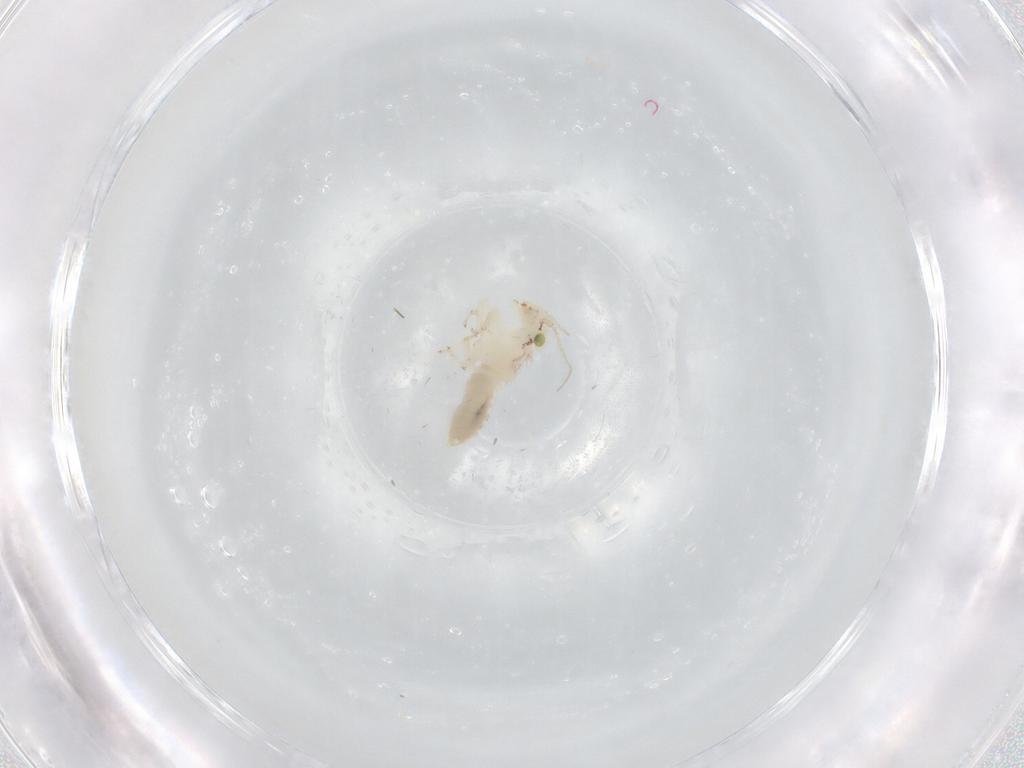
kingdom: Animalia
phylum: Arthropoda
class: Insecta
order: Psocodea
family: Lepidopsocidae
